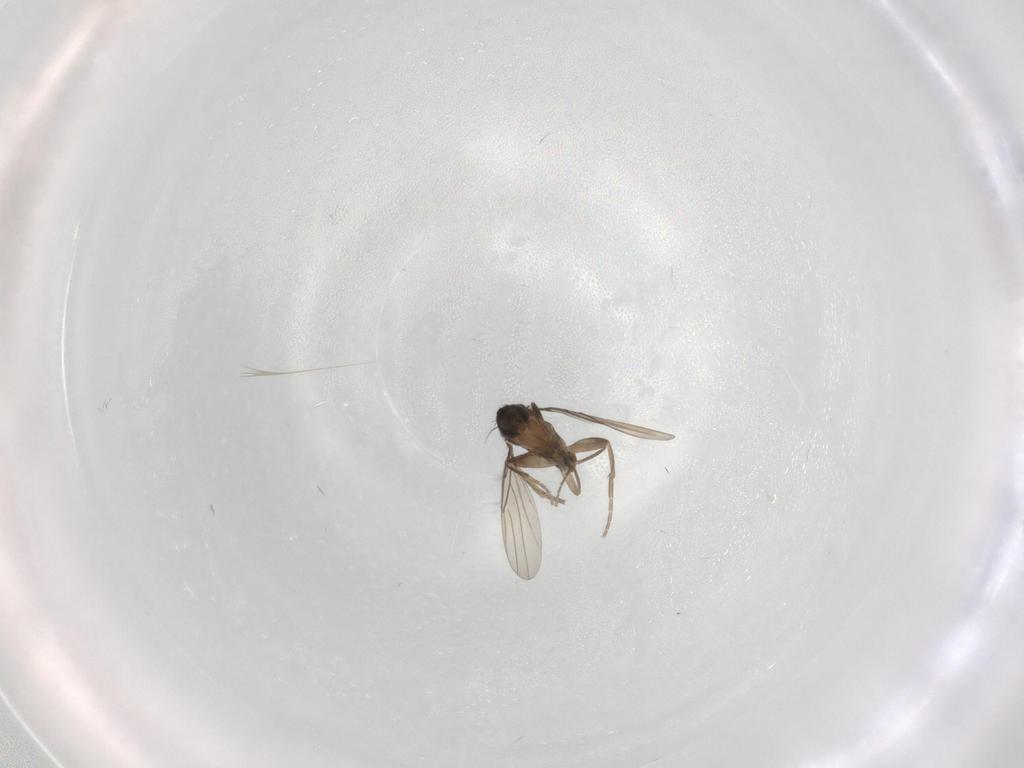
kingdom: Animalia
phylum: Arthropoda
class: Insecta
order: Diptera
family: Phoridae
